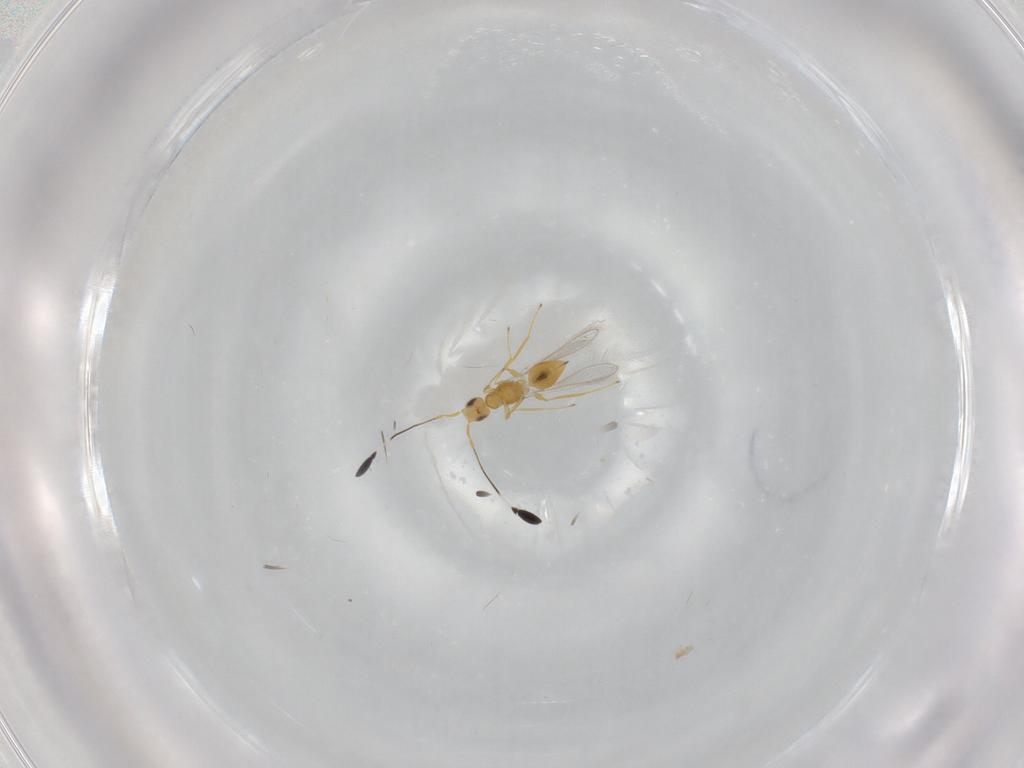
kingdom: Animalia
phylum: Arthropoda
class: Insecta
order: Hymenoptera
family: Mymaridae
